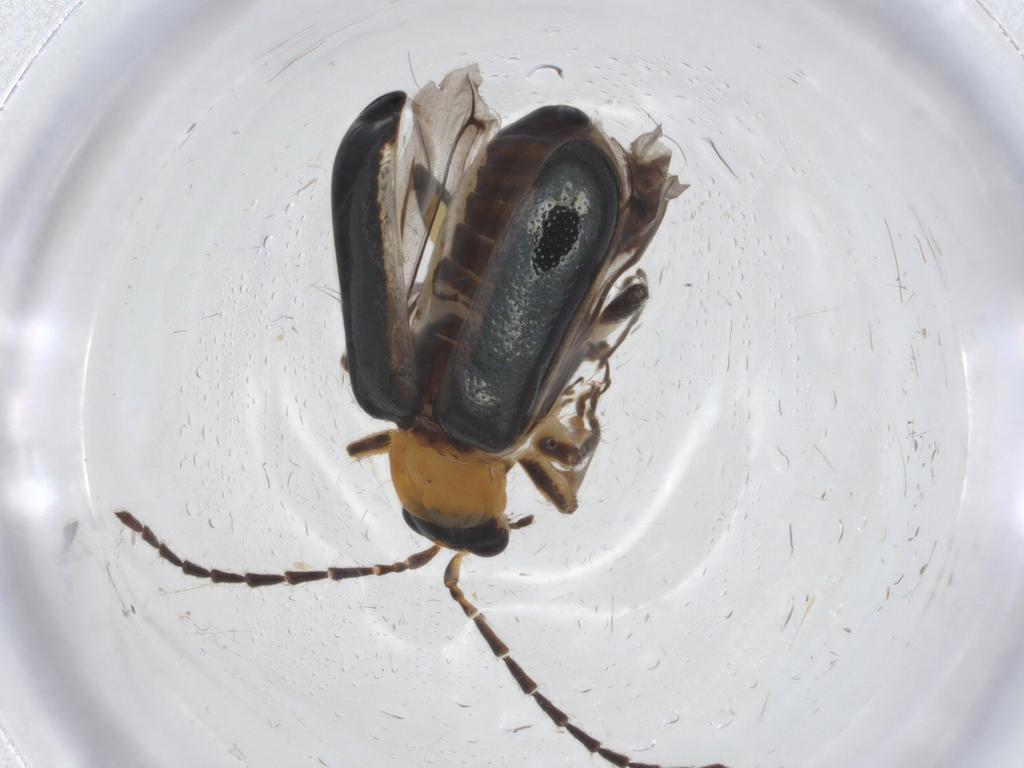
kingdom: Animalia
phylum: Arthropoda
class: Insecta
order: Coleoptera
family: Chrysomelidae
